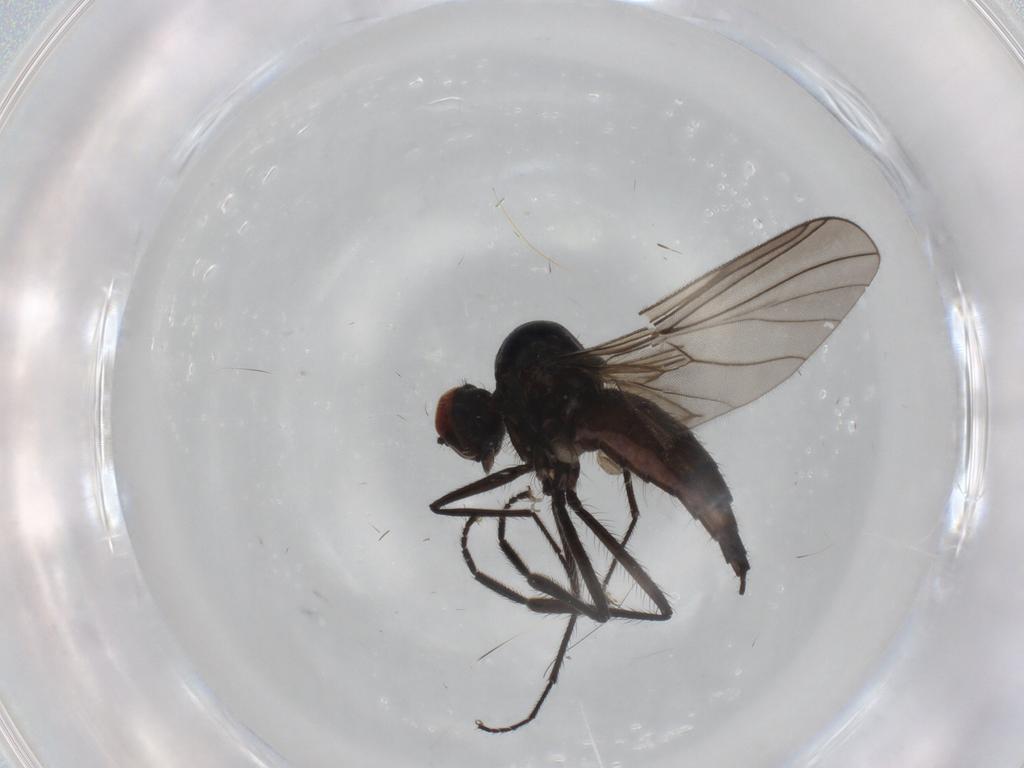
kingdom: Animalia
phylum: Arthropoda
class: Insecta
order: Diptera
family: Hybotidae
